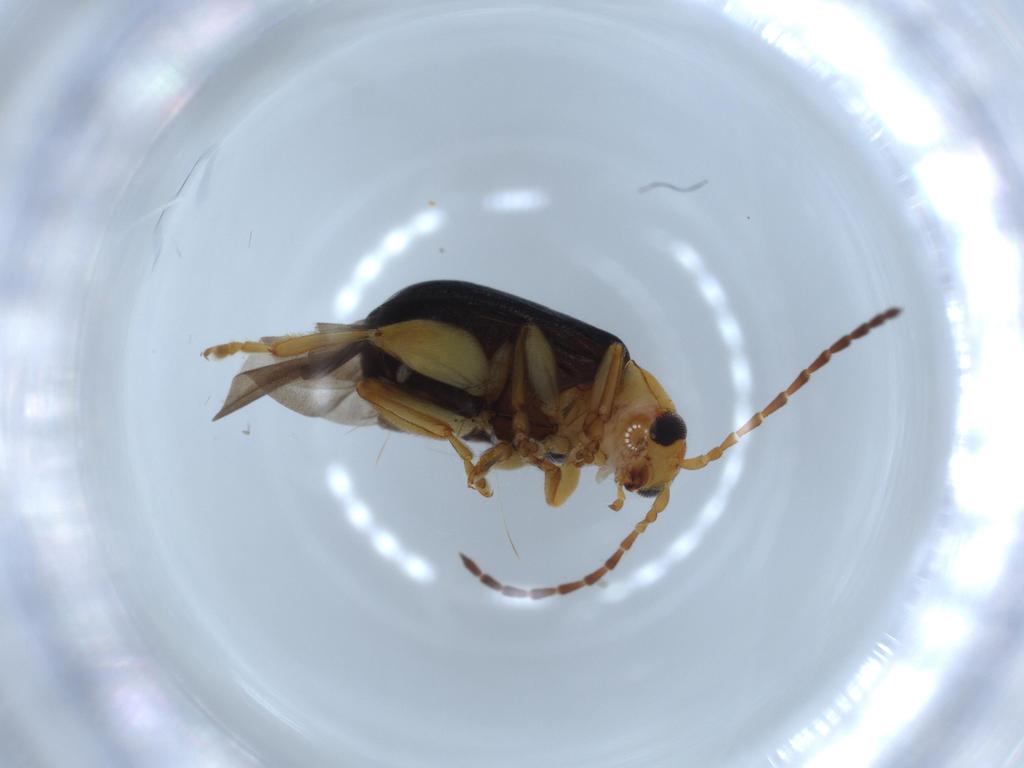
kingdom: Animalia
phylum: Arthropoda
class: Insecta
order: Coleoptera
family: Chrysomelidae
